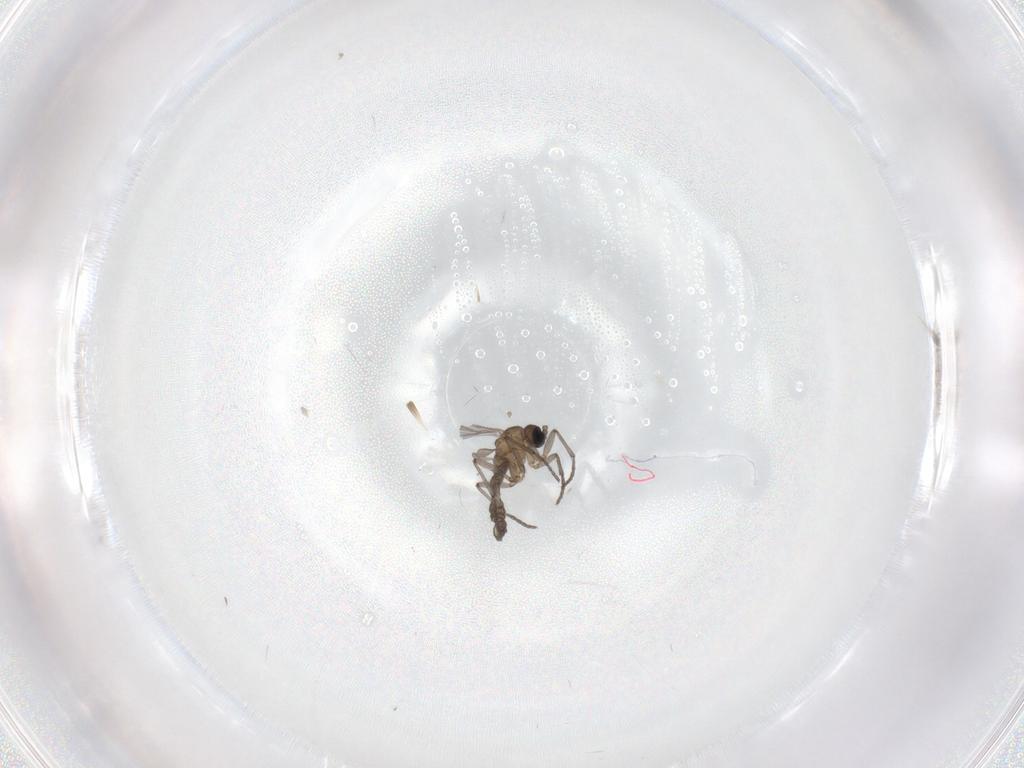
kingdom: Animalia
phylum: Arthropoda
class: Insecta
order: Diptera
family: Sciaridae
